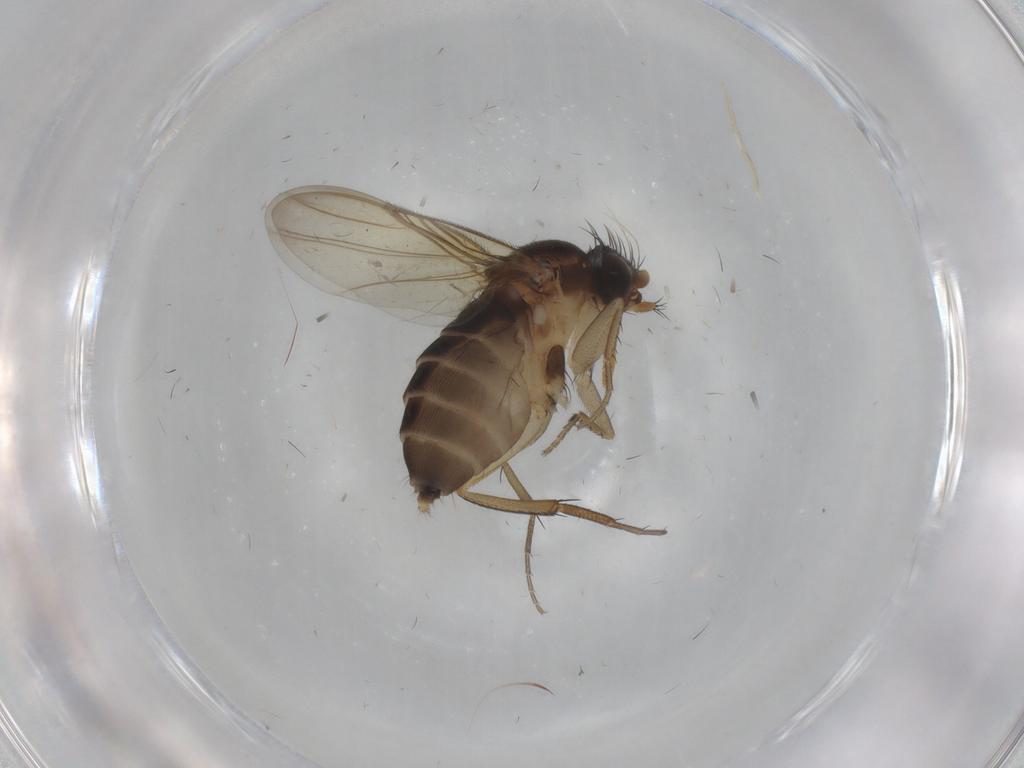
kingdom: Animalia
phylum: Arthropoda
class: Insecta
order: Diptera
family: Phoridae
